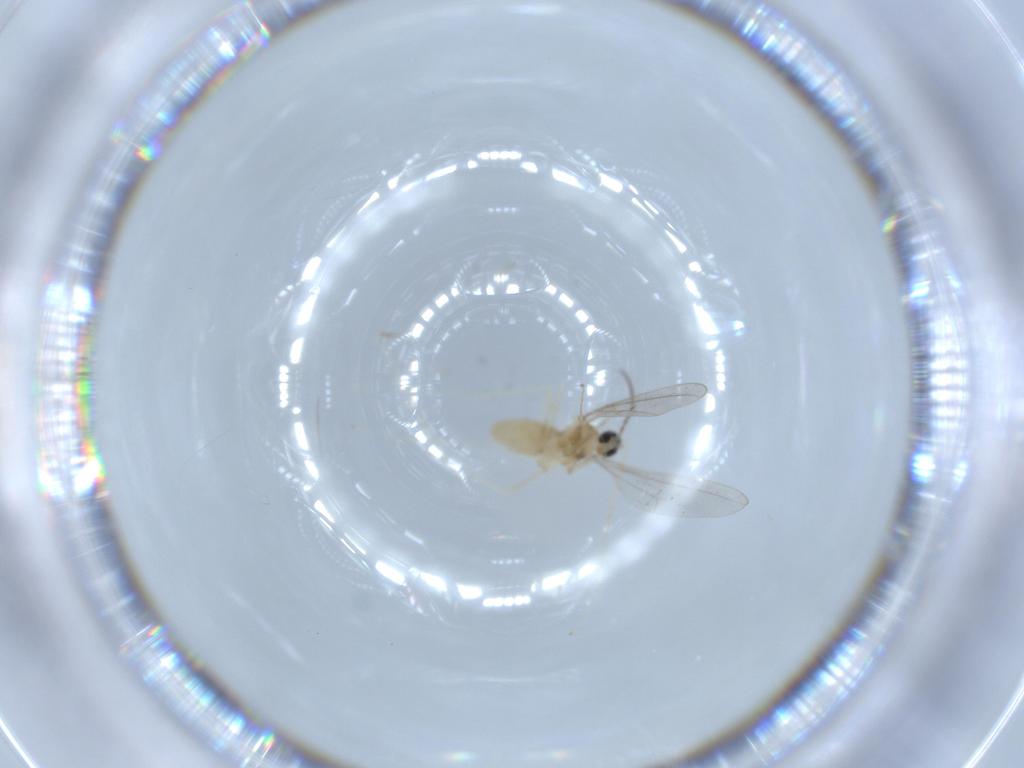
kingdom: Animalia
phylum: Arthropoda
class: Insecta
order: Diptera
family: Cecidomyiidae
